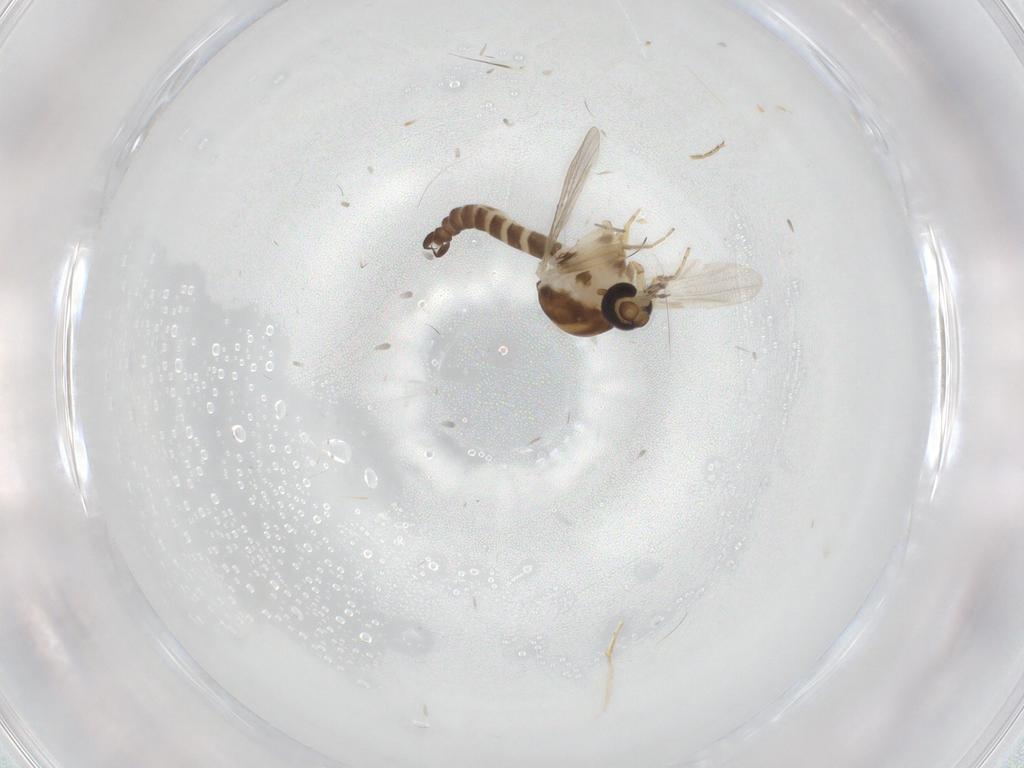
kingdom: Animalia
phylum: Arthropoda
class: Insecta
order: Diptera
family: Ceratopogonidae
